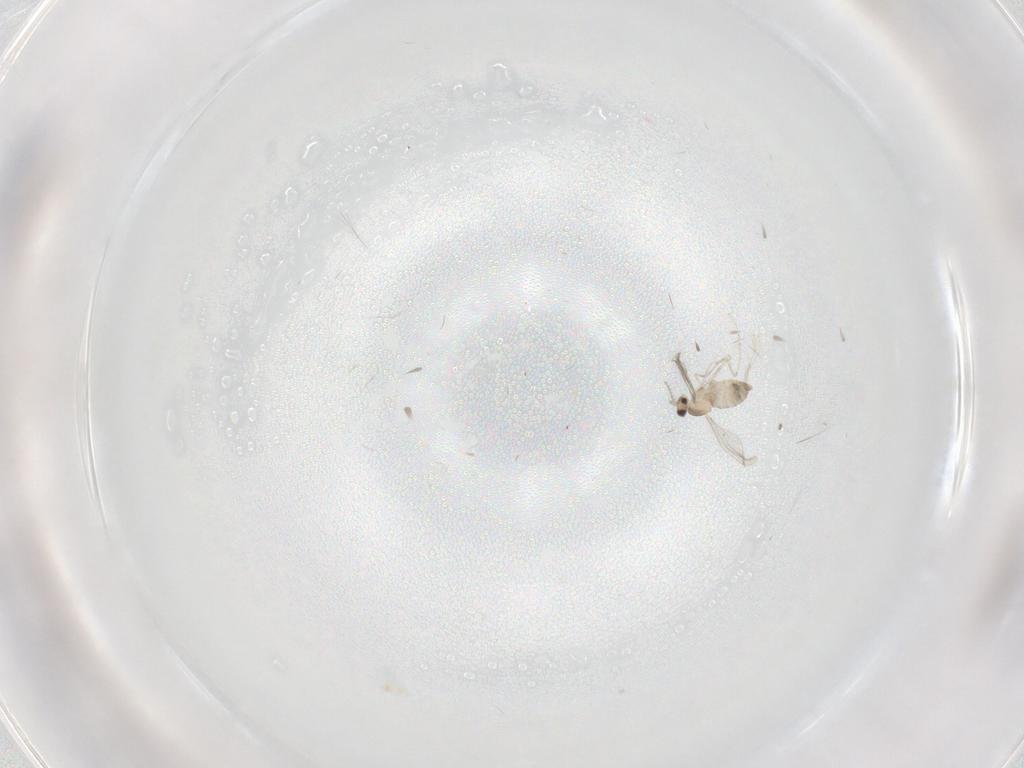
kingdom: Animalia
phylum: Arthropoda
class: Insecta
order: Diptera
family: Cecidomyiidae
